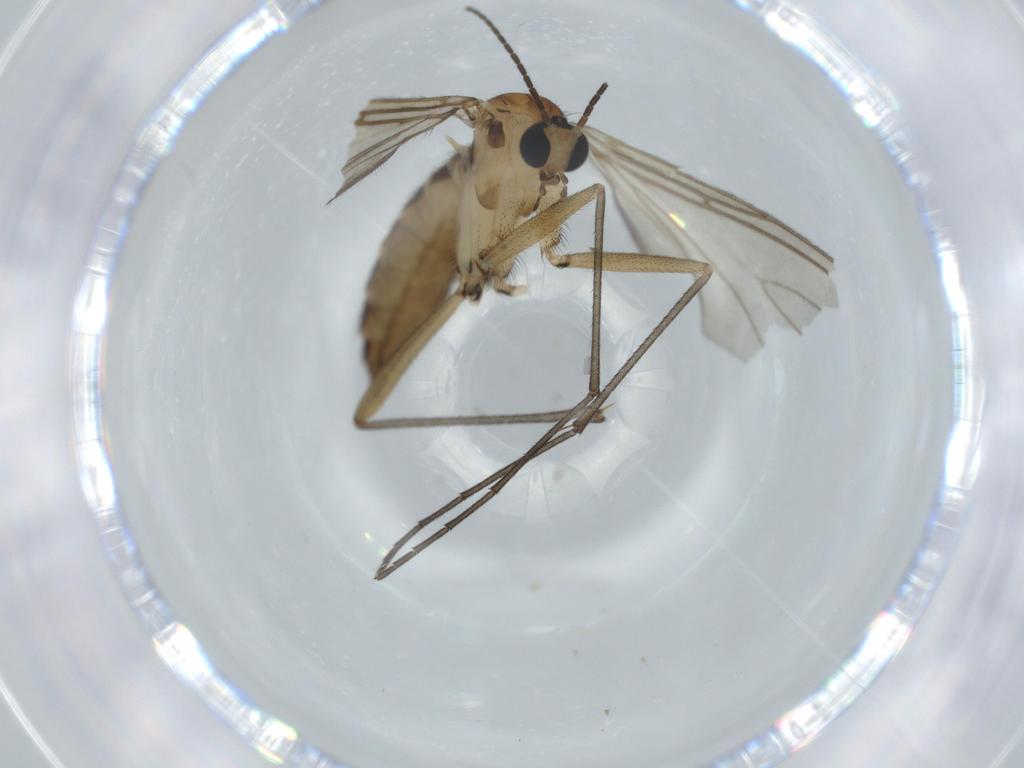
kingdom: Animalia
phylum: Arthropoda
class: Insecta
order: Diptera
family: Sciaridae
